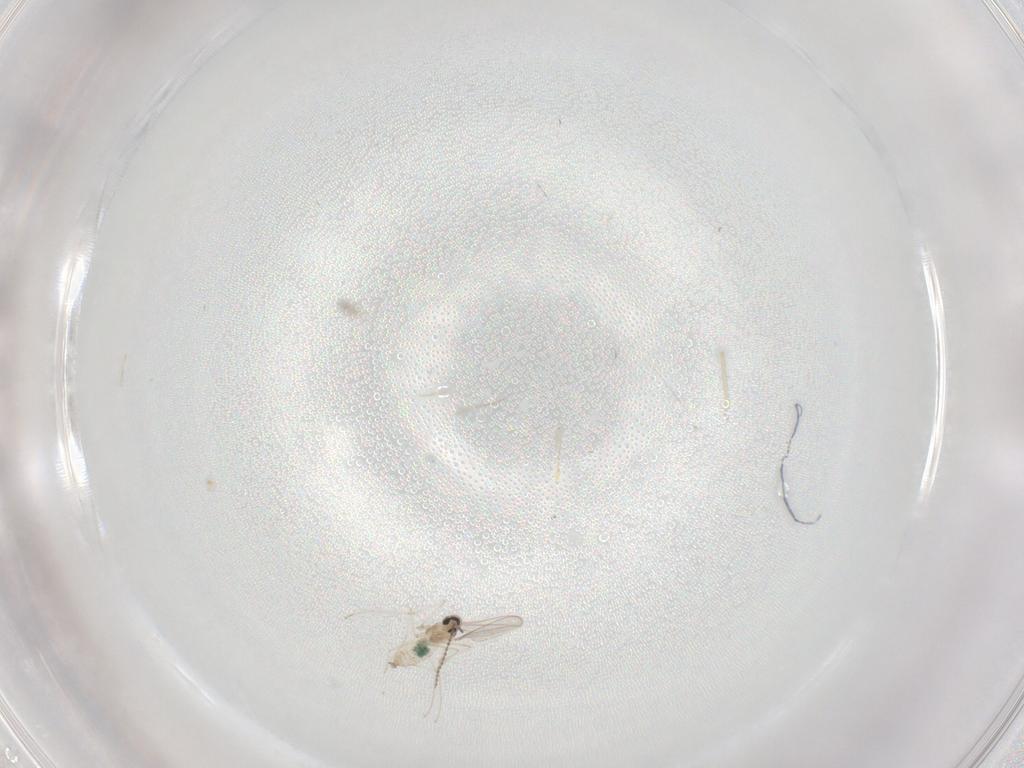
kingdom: Animalia
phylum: Arthropoda
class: Insecta
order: Diptera
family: Cecidomyiidae
